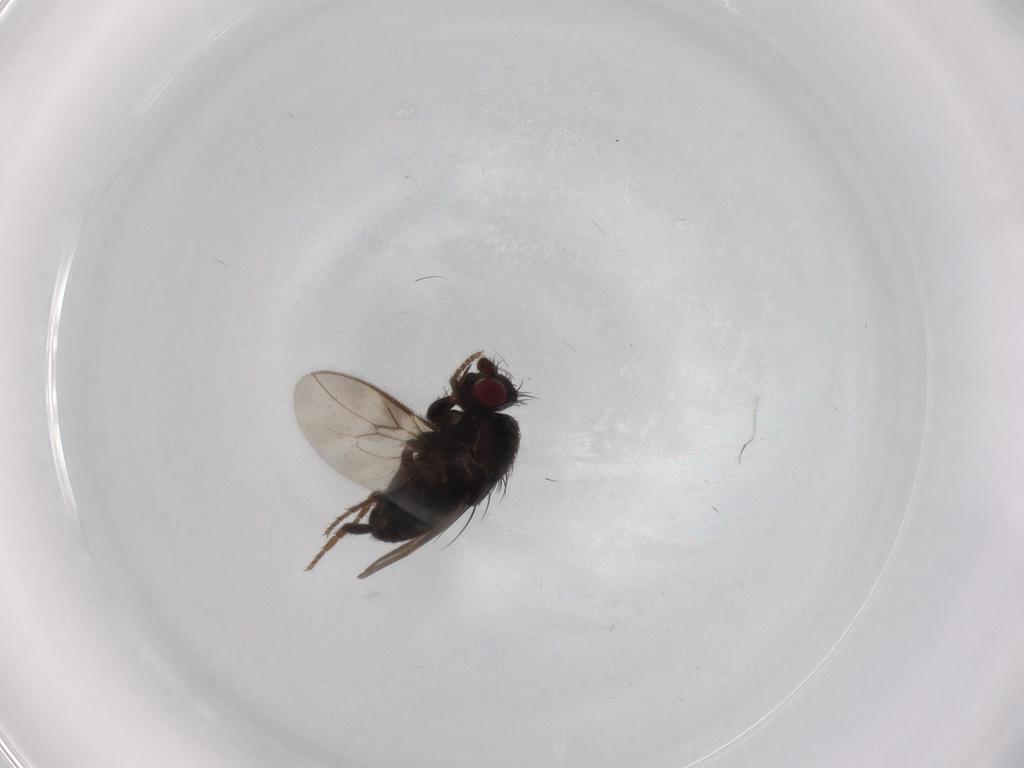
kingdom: Animalia
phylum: Arthropoda
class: Insecta
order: Diptera
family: Sphaeroceridae
